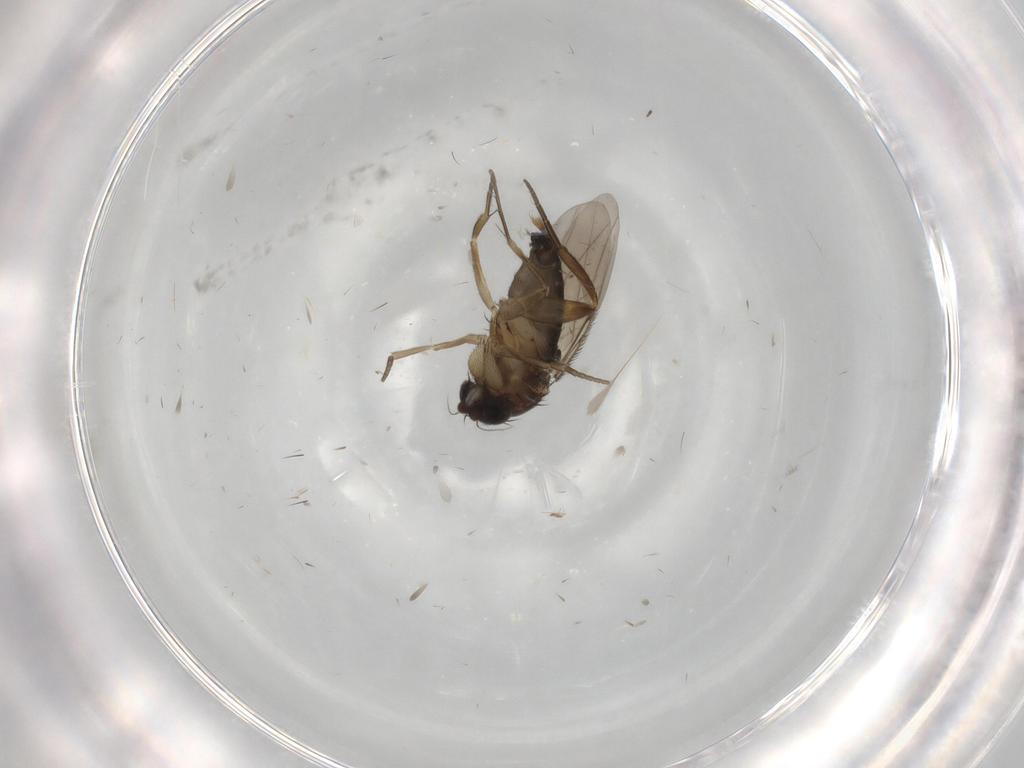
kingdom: Animalia
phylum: Arthropoda
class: Insecta
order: Diptera
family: Phoridae
